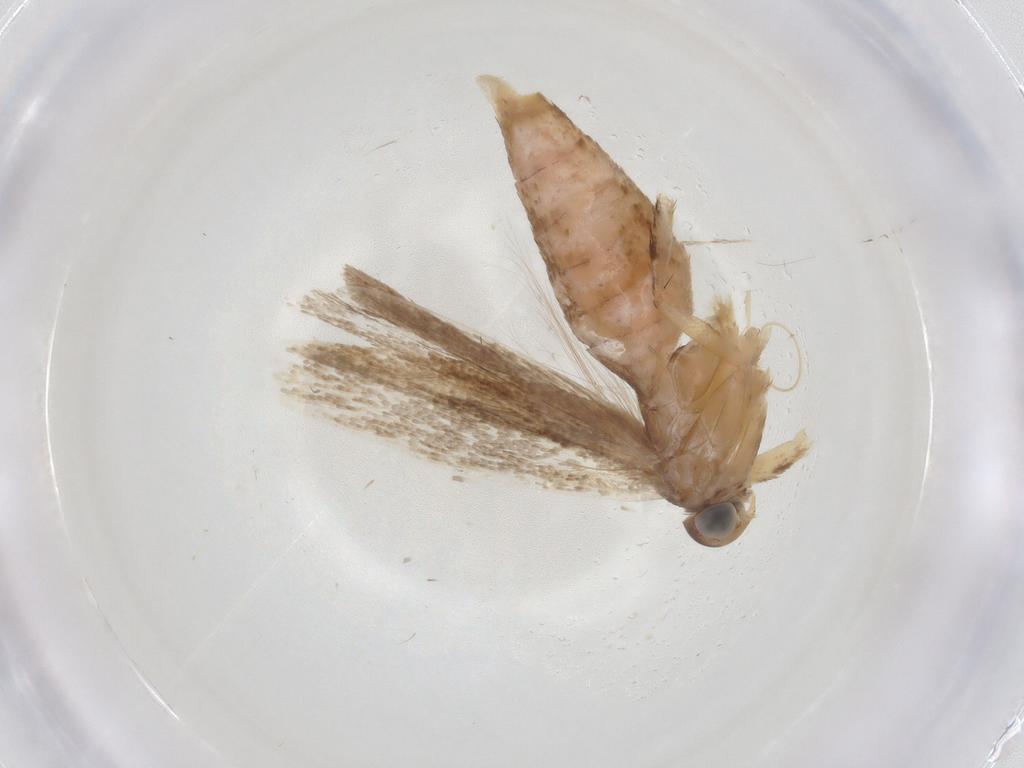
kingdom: Animalia
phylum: Arthropoda
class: Insecta
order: Lepidoptera
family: Gelechiidae
